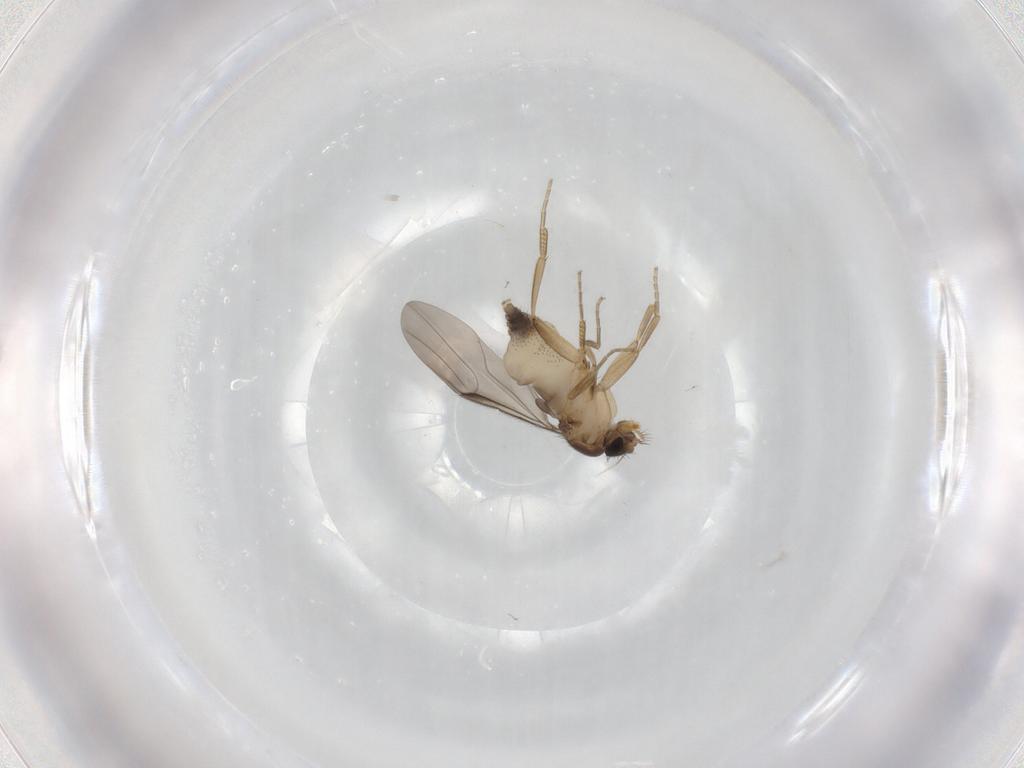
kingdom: Animalia
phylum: Arthropoda
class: Insecta
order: Diptera
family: Phoridae
